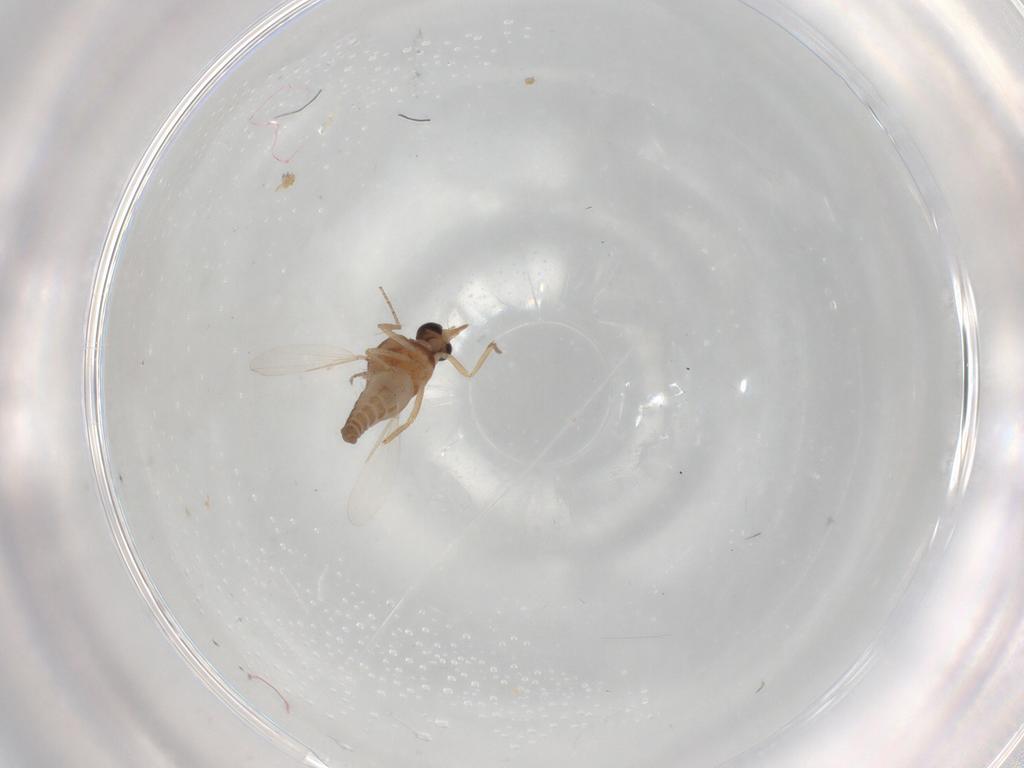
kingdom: Animalia
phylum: Arthropoda
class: Insecta
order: Diptera
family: Ceratopogonidae
